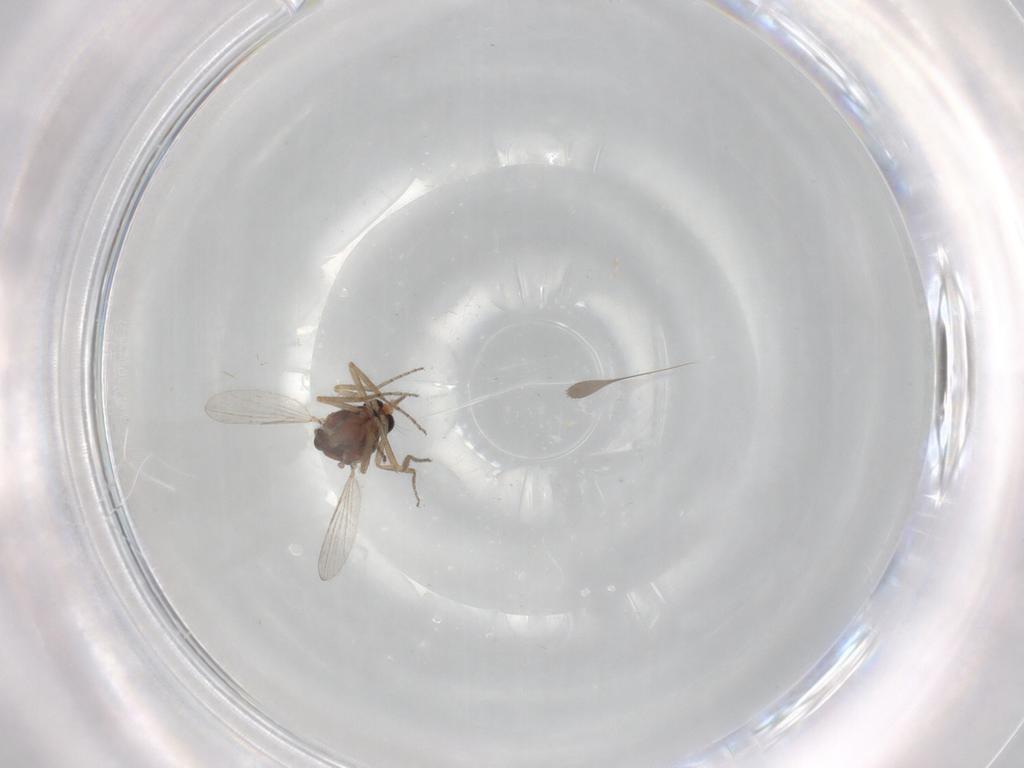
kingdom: Animalia
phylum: Arthropoda
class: Insecta
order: Diptera
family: Ceratopogonidae
